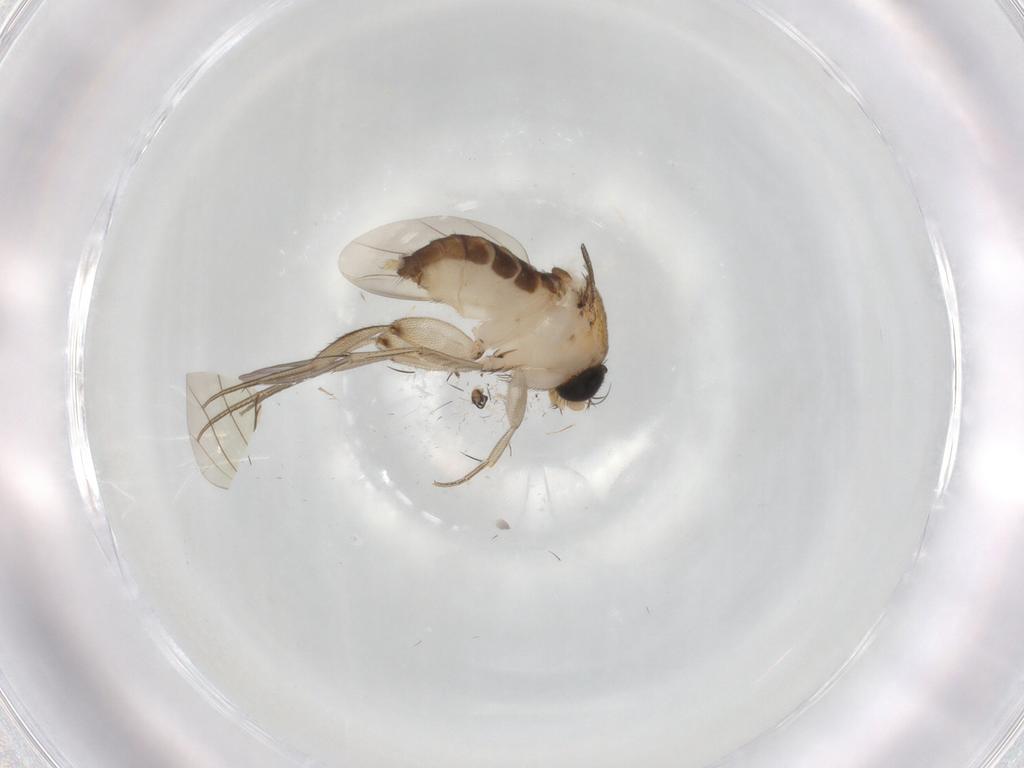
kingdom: Animalia
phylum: Arthropoda
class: Insecta
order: Diptera
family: Phoridae
